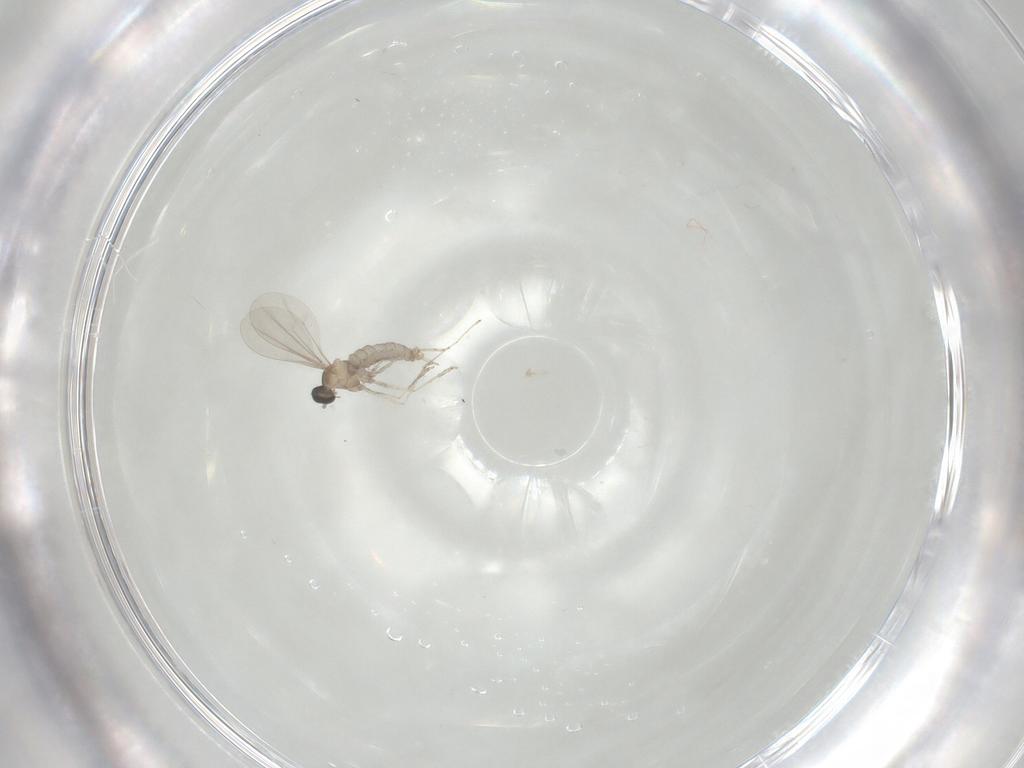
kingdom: Animalia
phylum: Arthropoda
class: Insecta
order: Diptera
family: Cecidomyiidae
